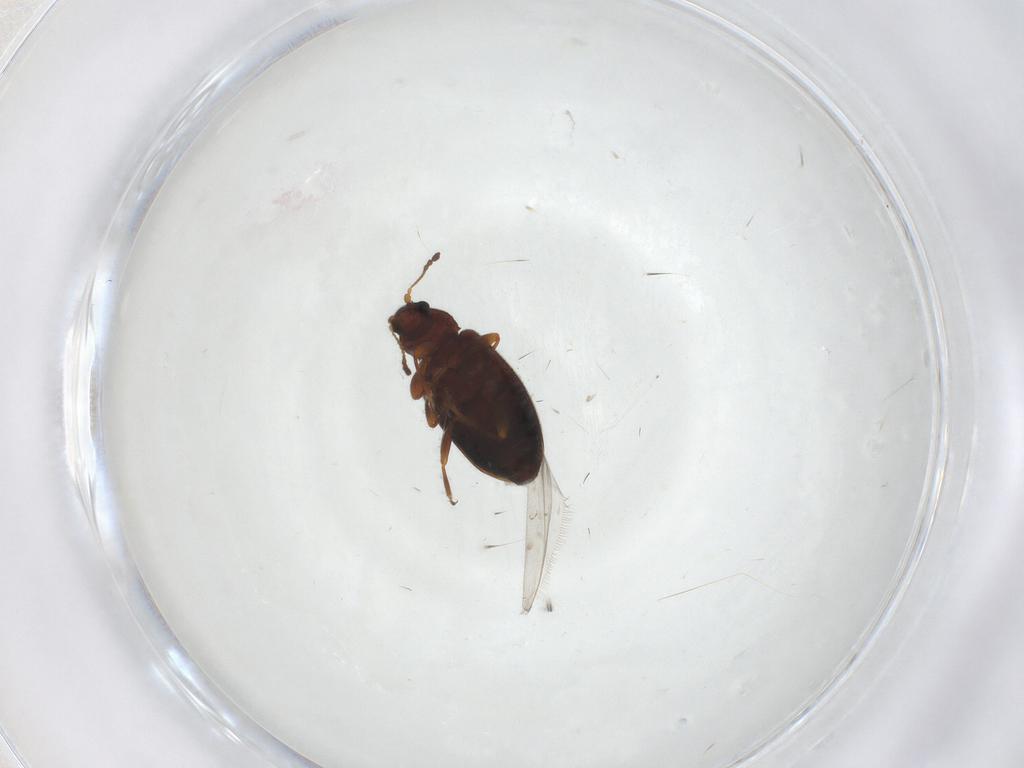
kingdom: Animalia
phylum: Arthropoda
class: Insecta
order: Coleoptera
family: Latridiidae
